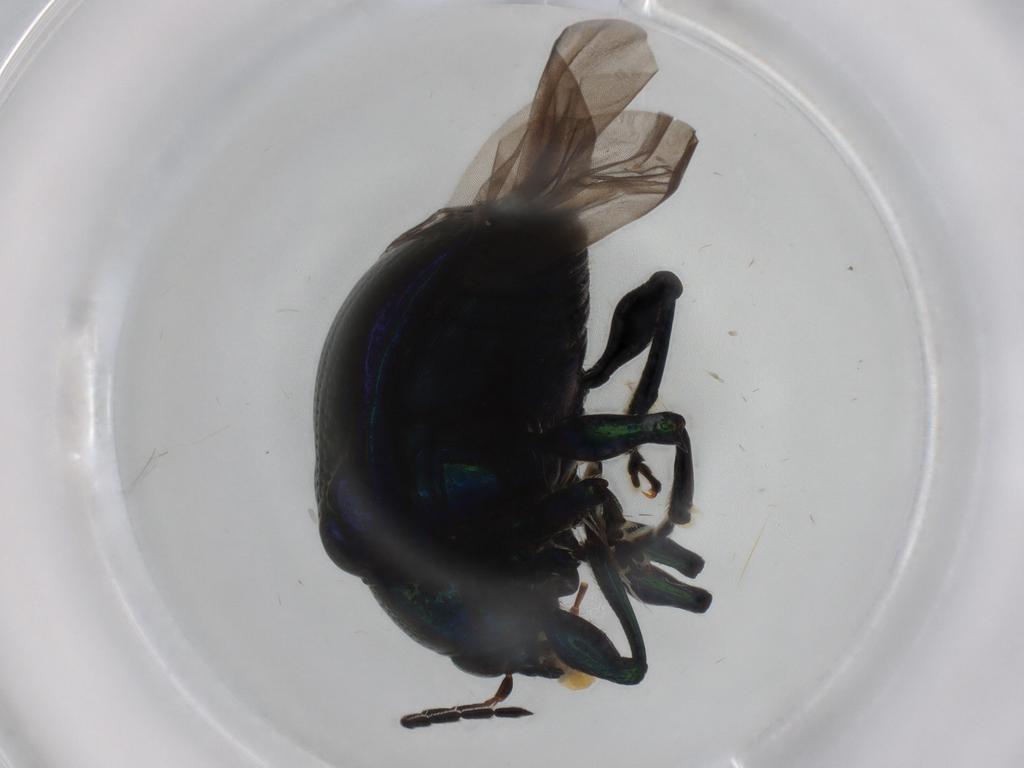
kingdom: Animalia
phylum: Arthropoda
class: Insecta
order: Coleoptera
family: Chrysomelidae
